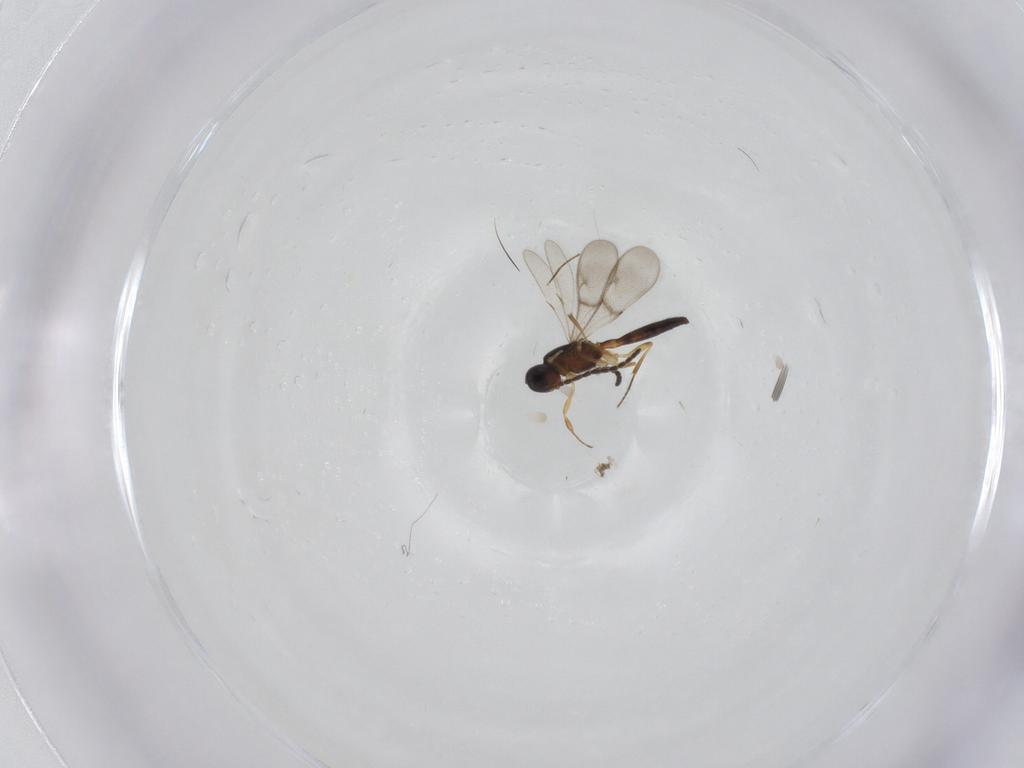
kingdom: Animalia
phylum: Arthropoda
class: Insecta
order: Hymenoptera
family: Scelionidae
